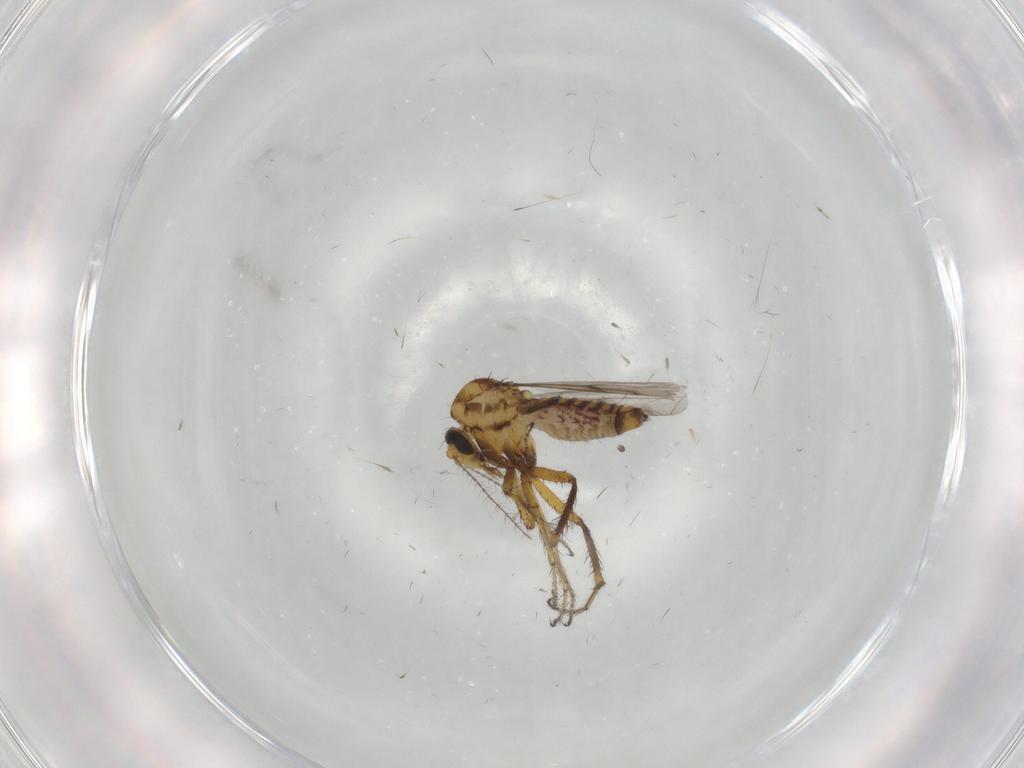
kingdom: Animalia
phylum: Arthropoda
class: Insecta
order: Diptera
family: Ceratopogonidae
